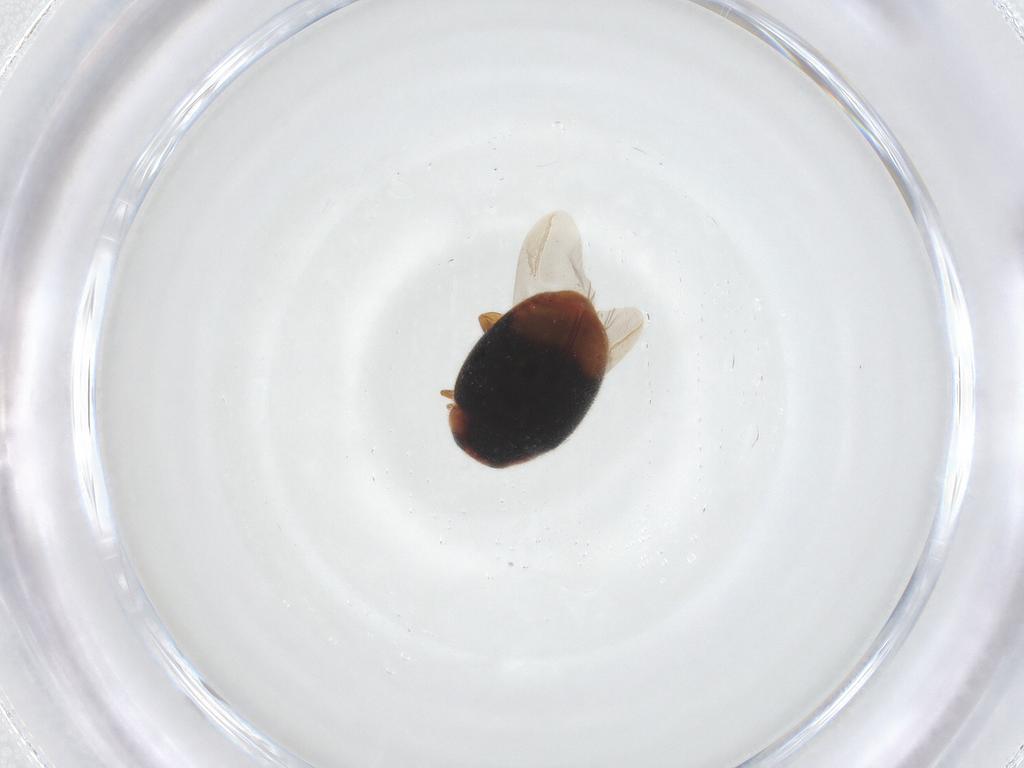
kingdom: Animalia
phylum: Arthropoda
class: Insecta
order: Coleoptera
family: Coccinellidae
